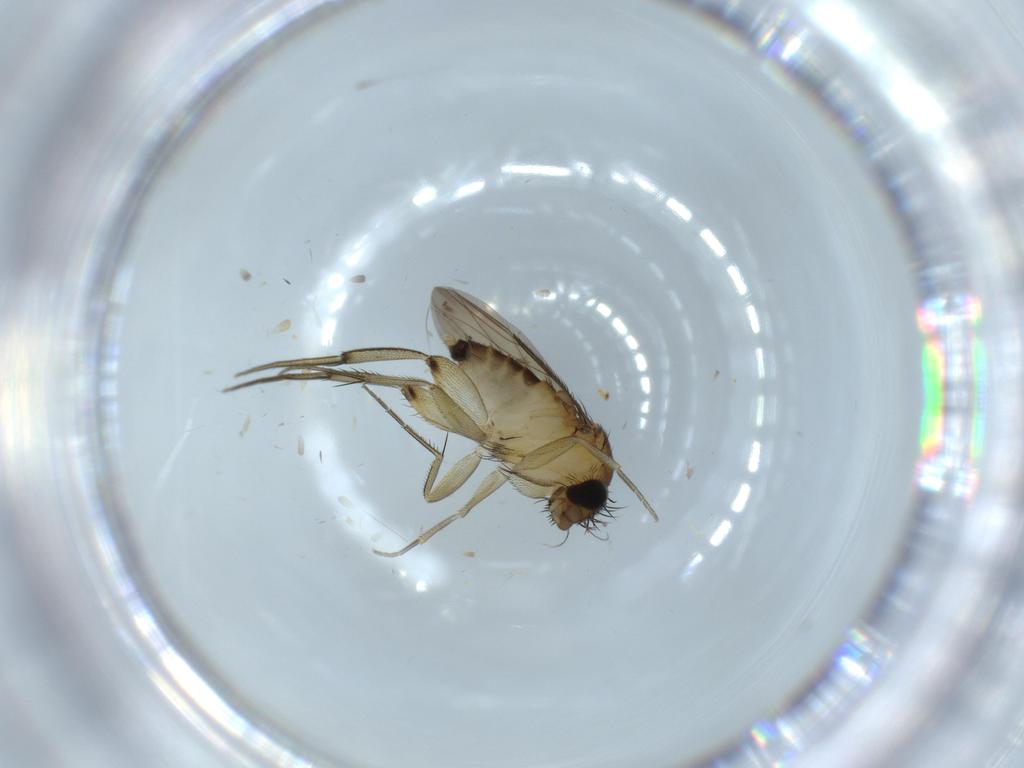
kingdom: Animalia
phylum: Arthropoda
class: Insecta
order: Diptera
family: Phoridae
